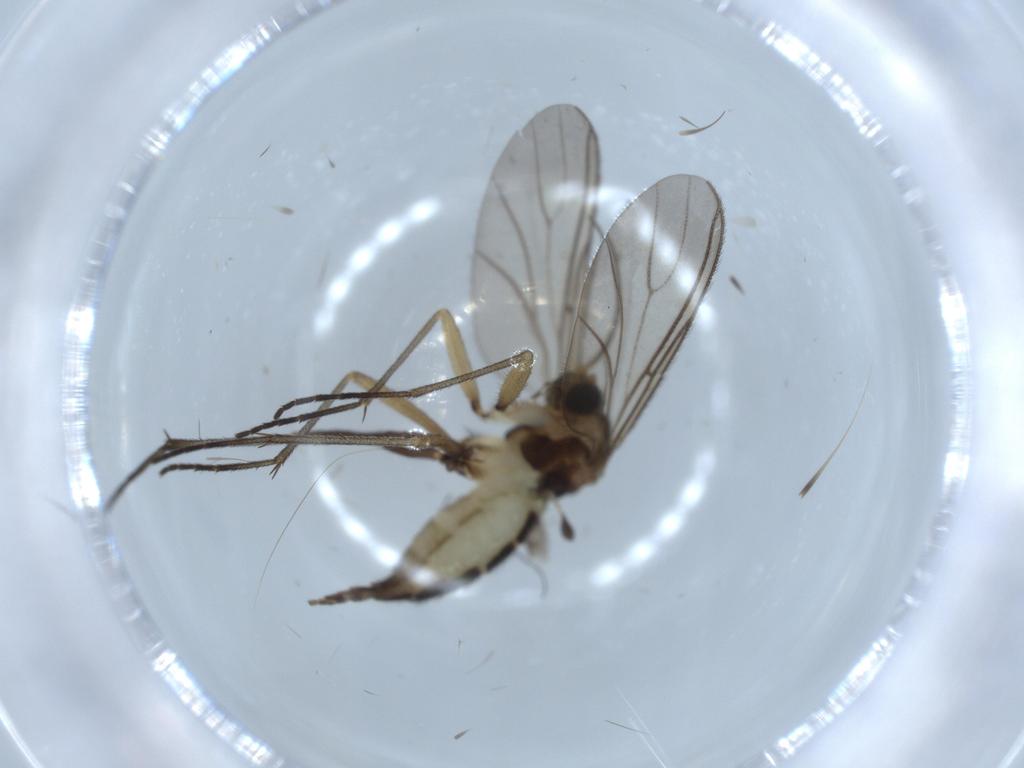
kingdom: Animalia
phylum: Arthropoda
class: Insecta
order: Diptera
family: Sciaridae
